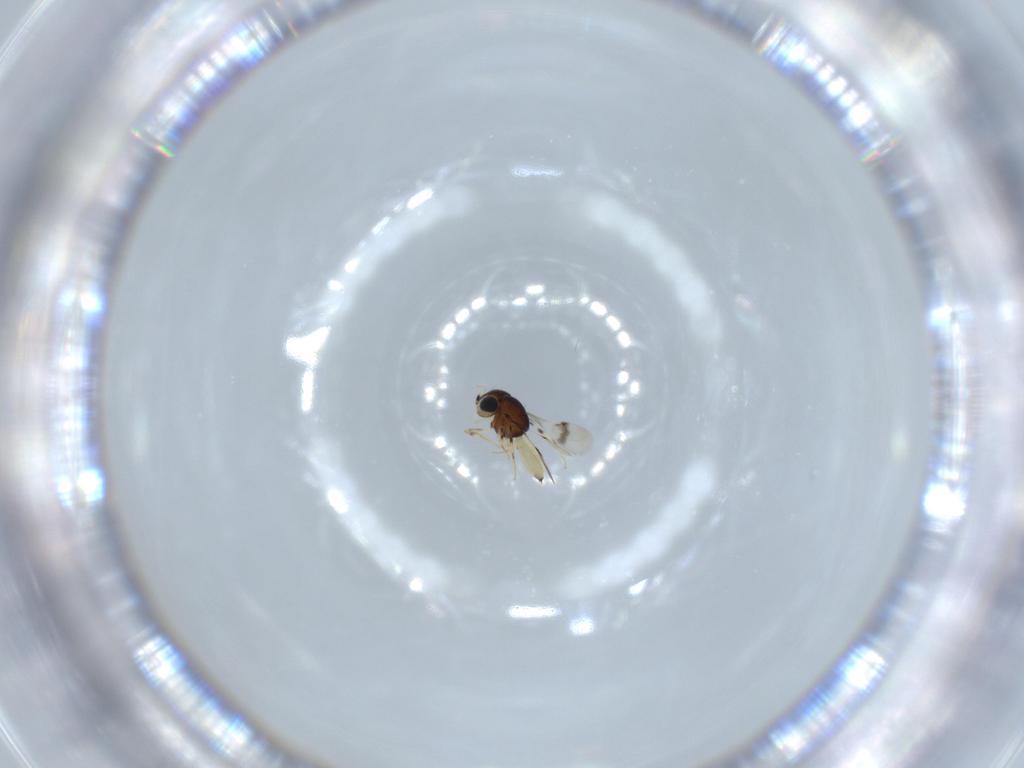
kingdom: Animalia
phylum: Arthropoda
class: Insecta
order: Hymenoptera
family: Scelionidae
